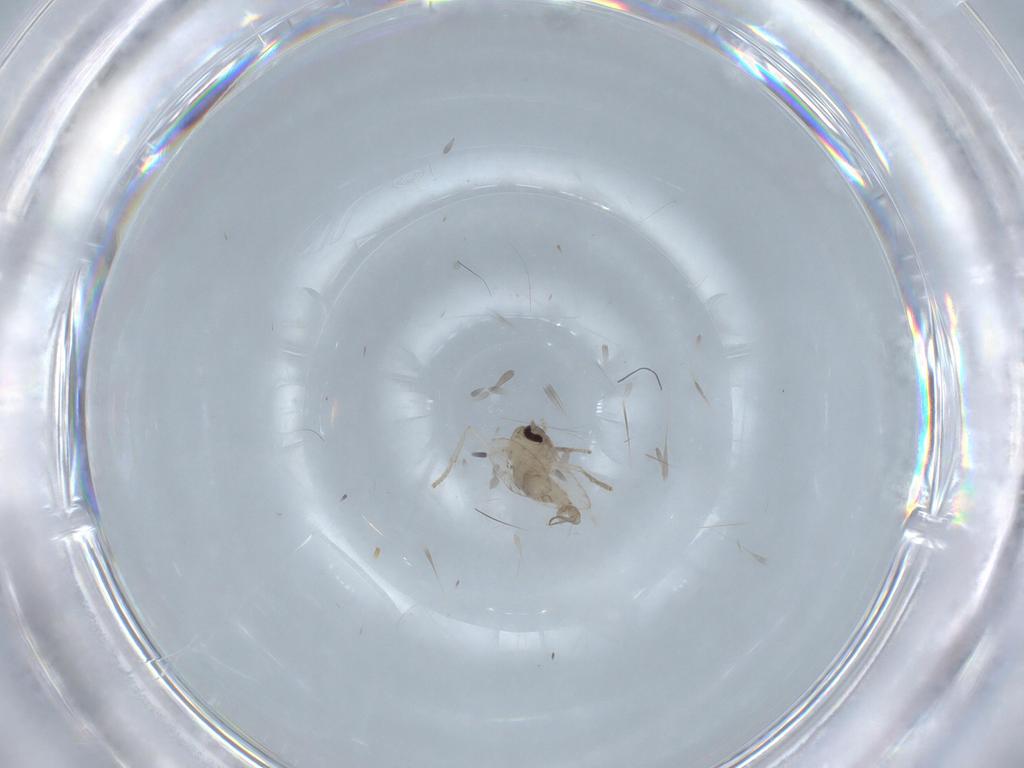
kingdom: Animalia
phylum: Arthropoda
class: Insecta
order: Diptera
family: Psychodidae
